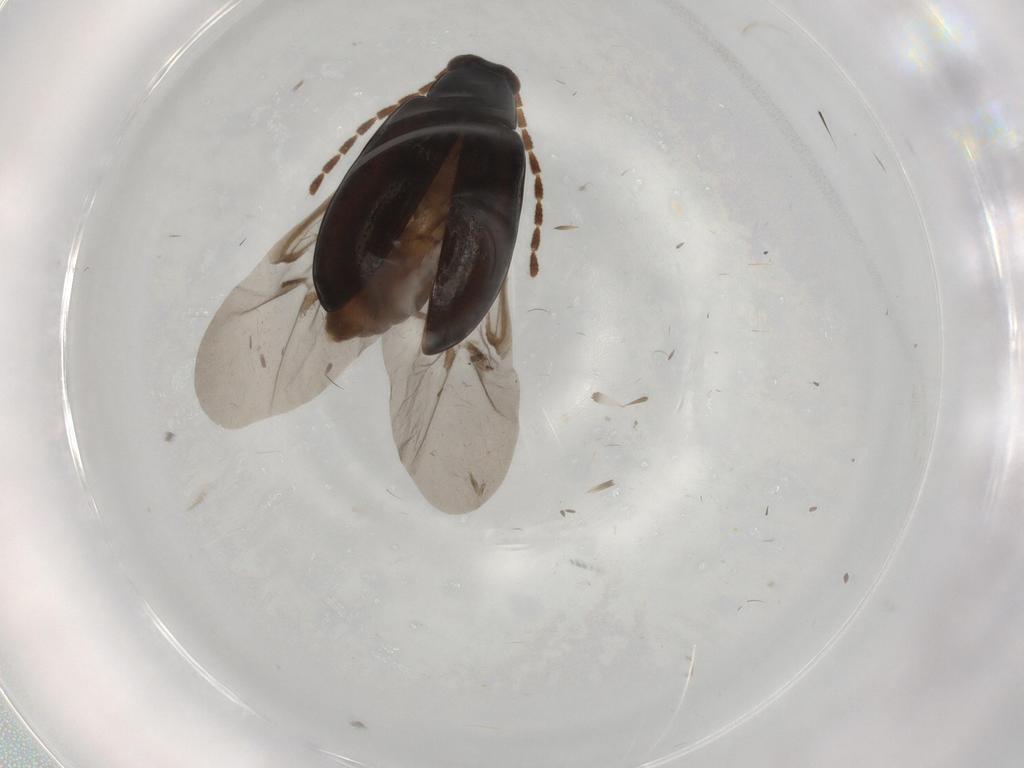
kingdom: Animalia
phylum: Arthropoda
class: Insecta
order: Coleoptera
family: Tenebrionidae
